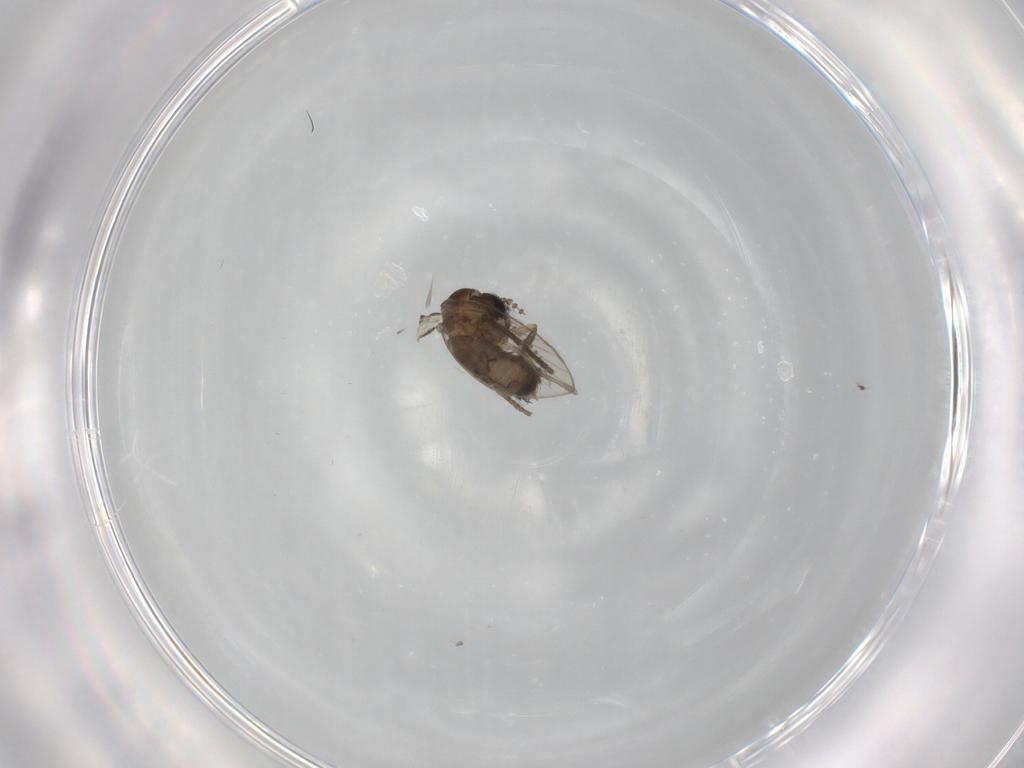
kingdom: Animalia
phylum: Arthropoda
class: Insecta
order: Diptera
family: Psychodidae
